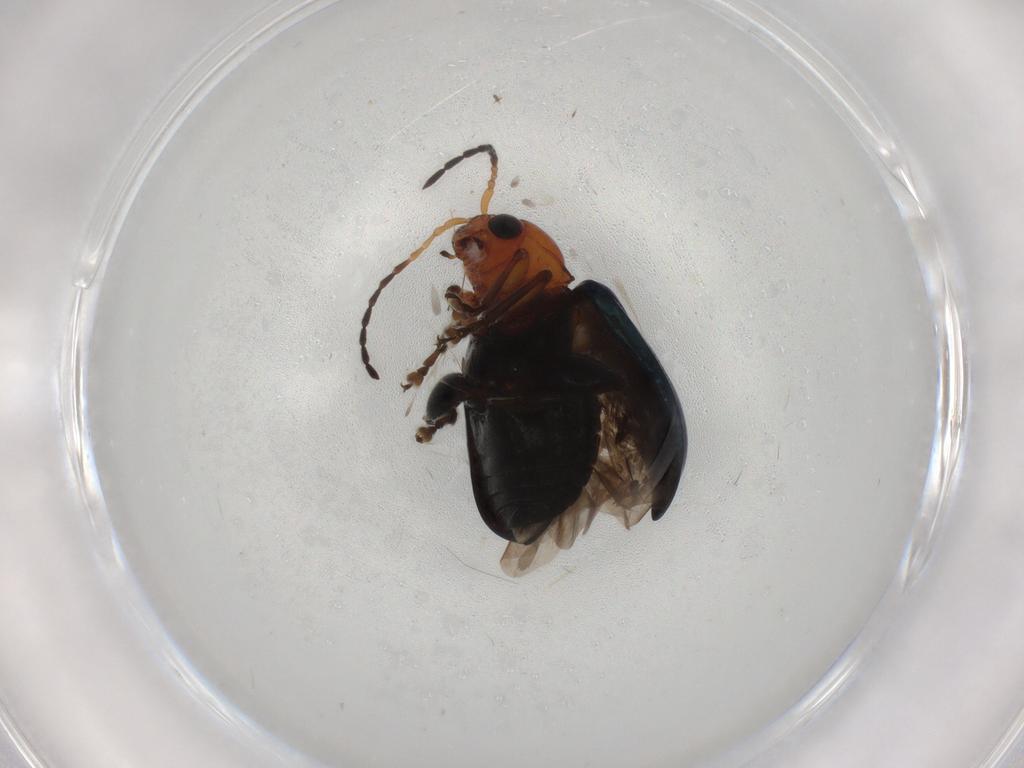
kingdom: Animalia
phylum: Arthropoda
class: Insecta
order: Coleoptera
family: Chrysomelidae
